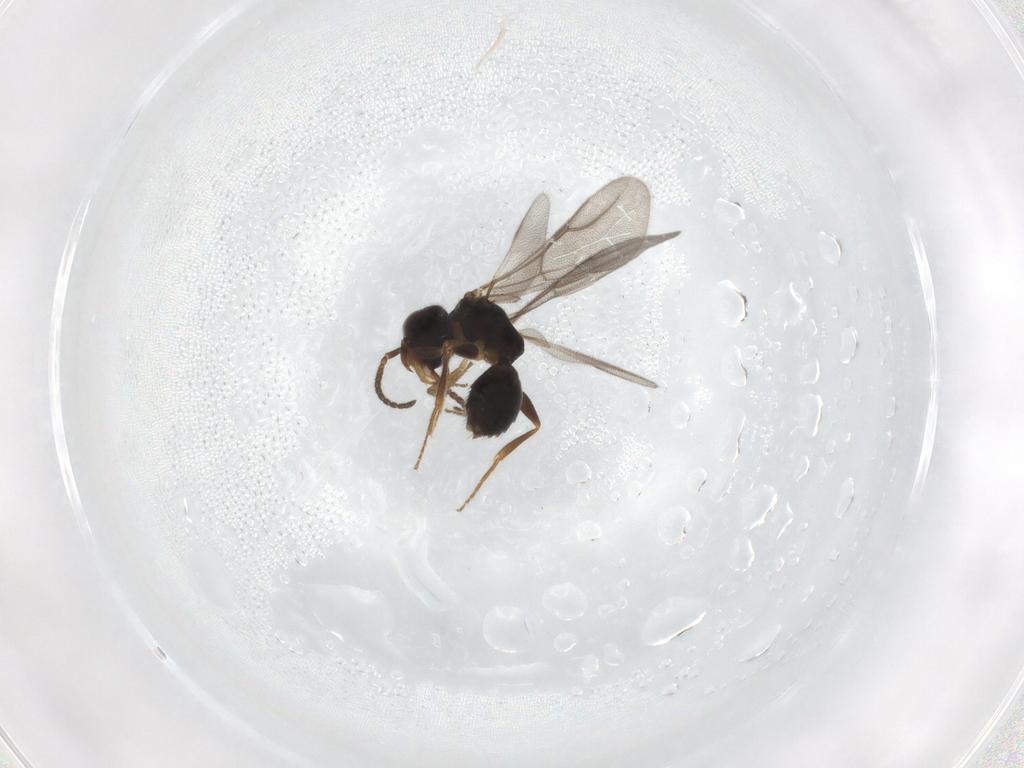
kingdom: Animalia
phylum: Arthropoda
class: Insecta
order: Hymenoptera
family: Bethylidae
